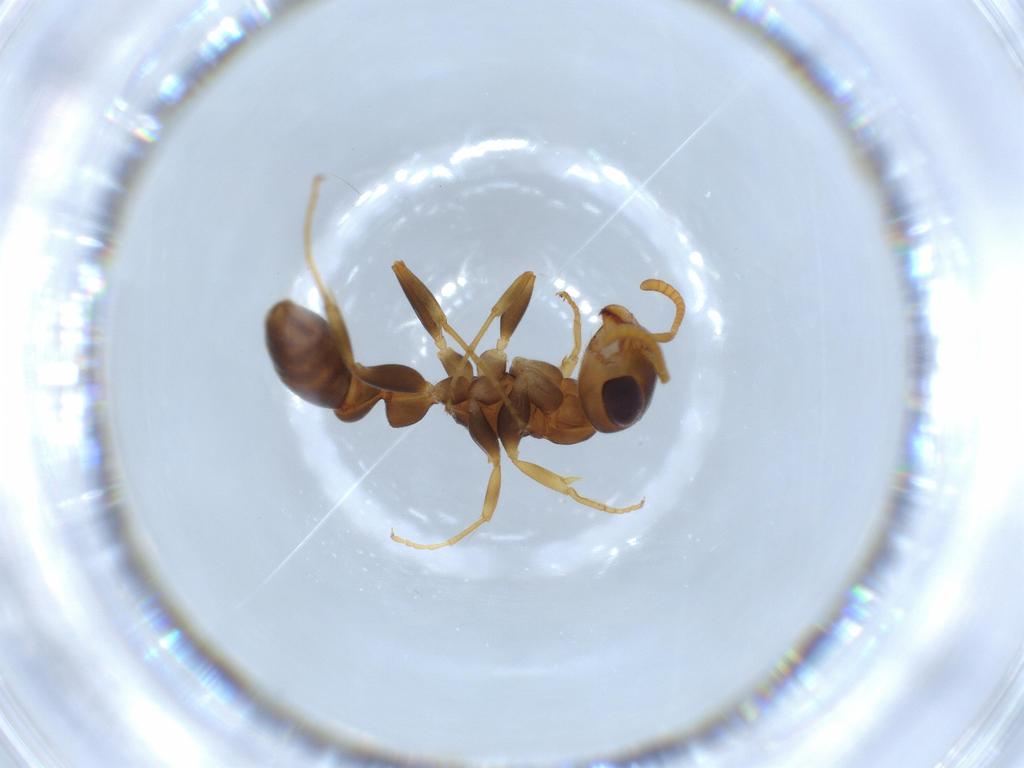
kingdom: Animalia
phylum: Arthropoda
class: Insecta
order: Hymenoptera
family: Formicidae
